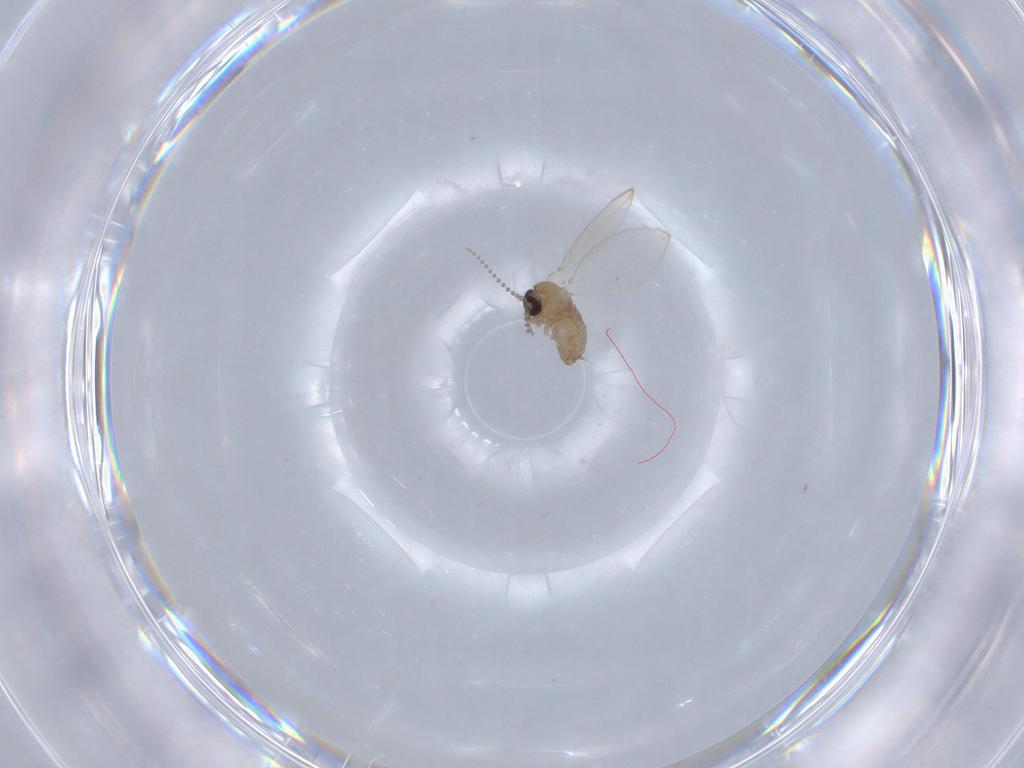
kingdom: Animalia
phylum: Arthropoda
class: Insecta
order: Diptera
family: Psychodidae
